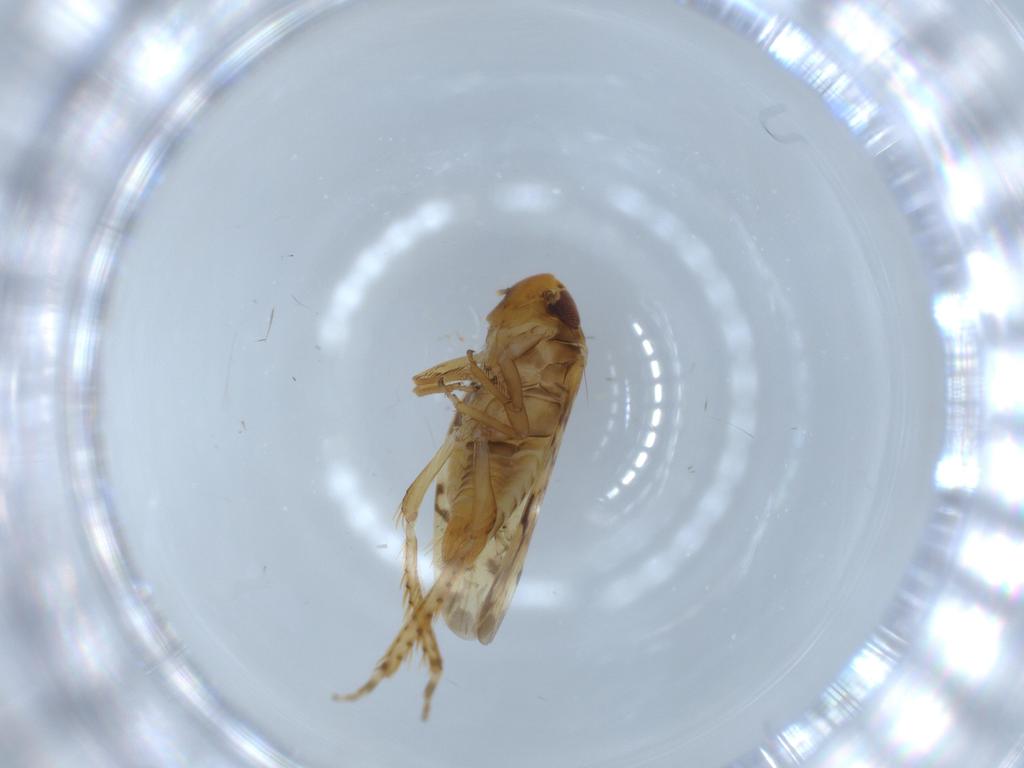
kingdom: Animalia
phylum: Arthropoda
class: Insecta
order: Hemiptera
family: Cicadellidae
